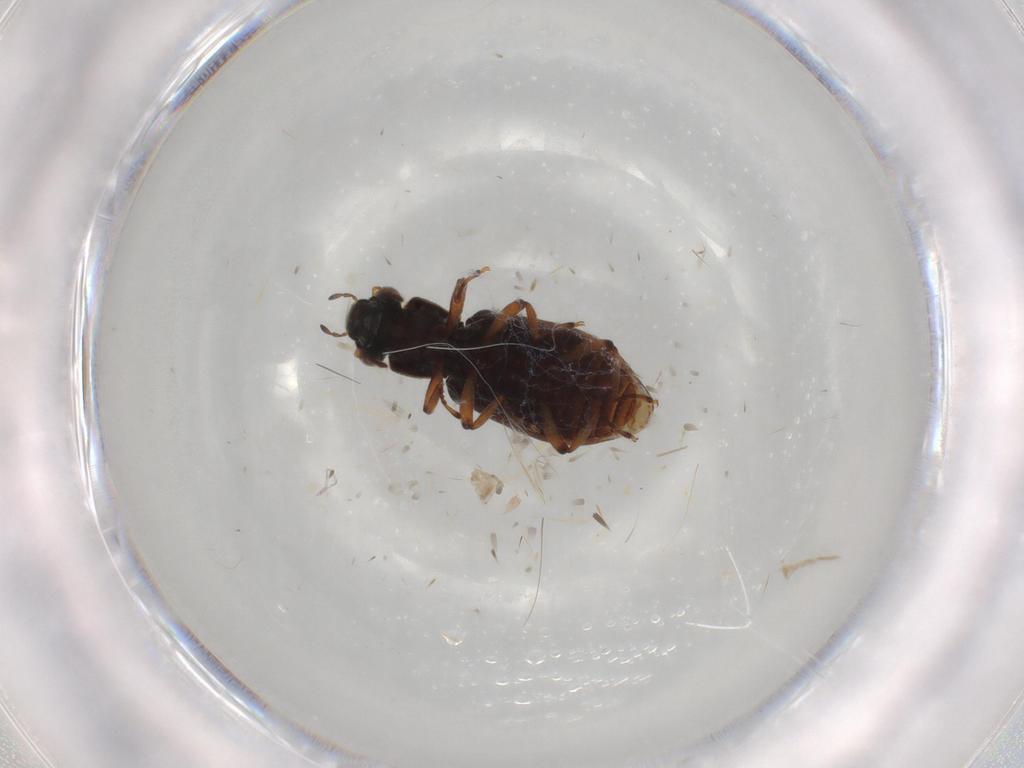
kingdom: Animalia
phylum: Arthropoda
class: Insecta
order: Coleoptera
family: Hydrophilidae
